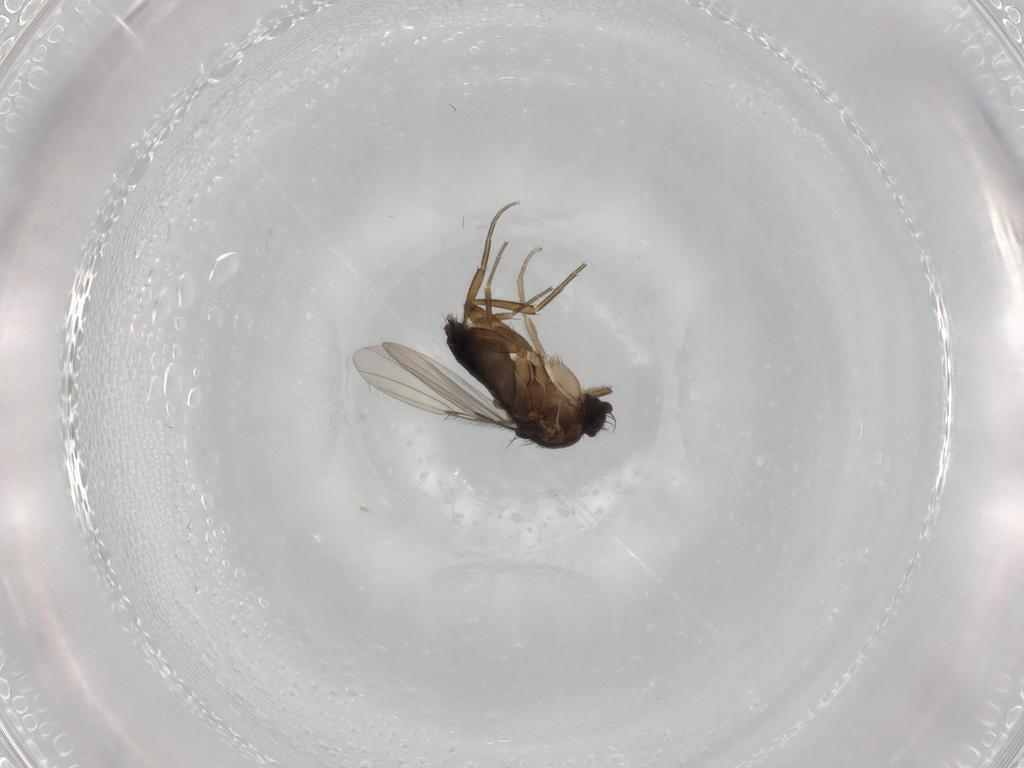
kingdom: Animalia
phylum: Arthropoda
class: Insecta
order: Diptera
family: Phoridae
